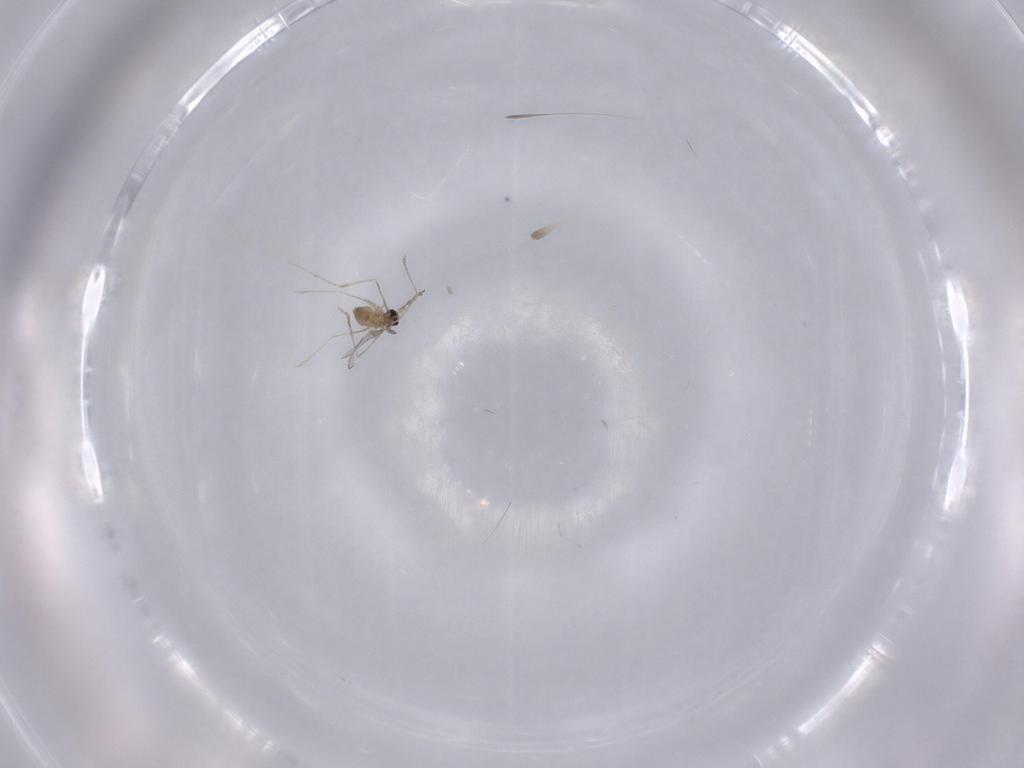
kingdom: Animalia
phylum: Arthropoda
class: Insecta
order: Diptera
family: Cecidomyiidae
